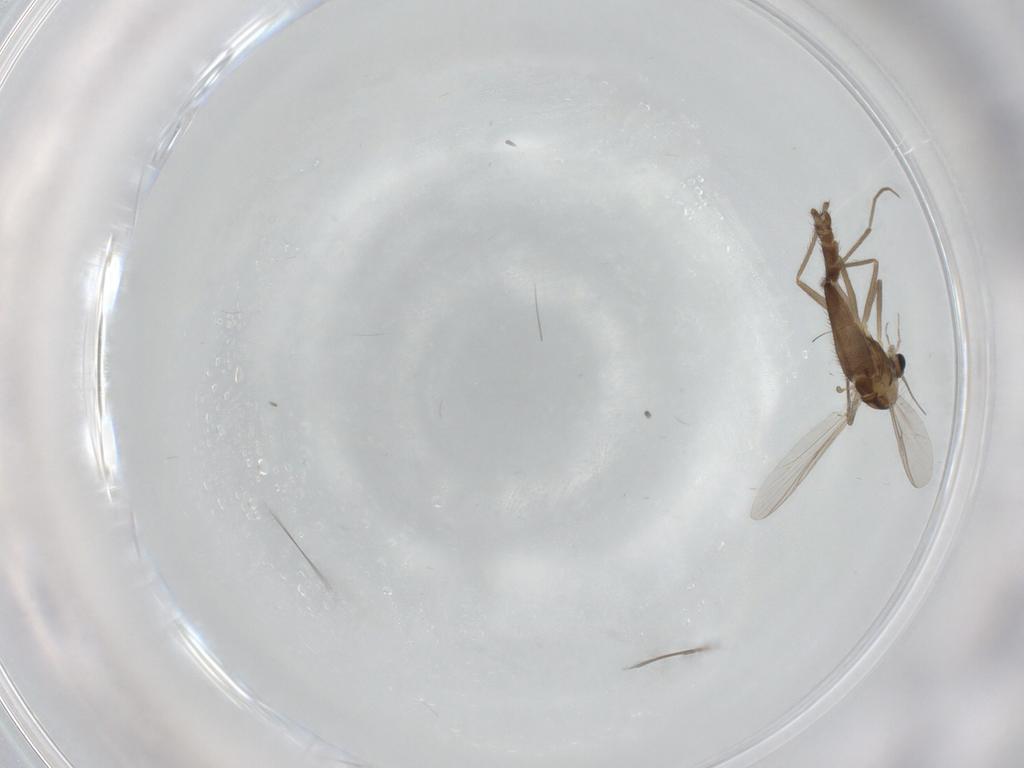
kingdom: Animalia
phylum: Arthropoda
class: Insecta
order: Diptera
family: Chironomidae
